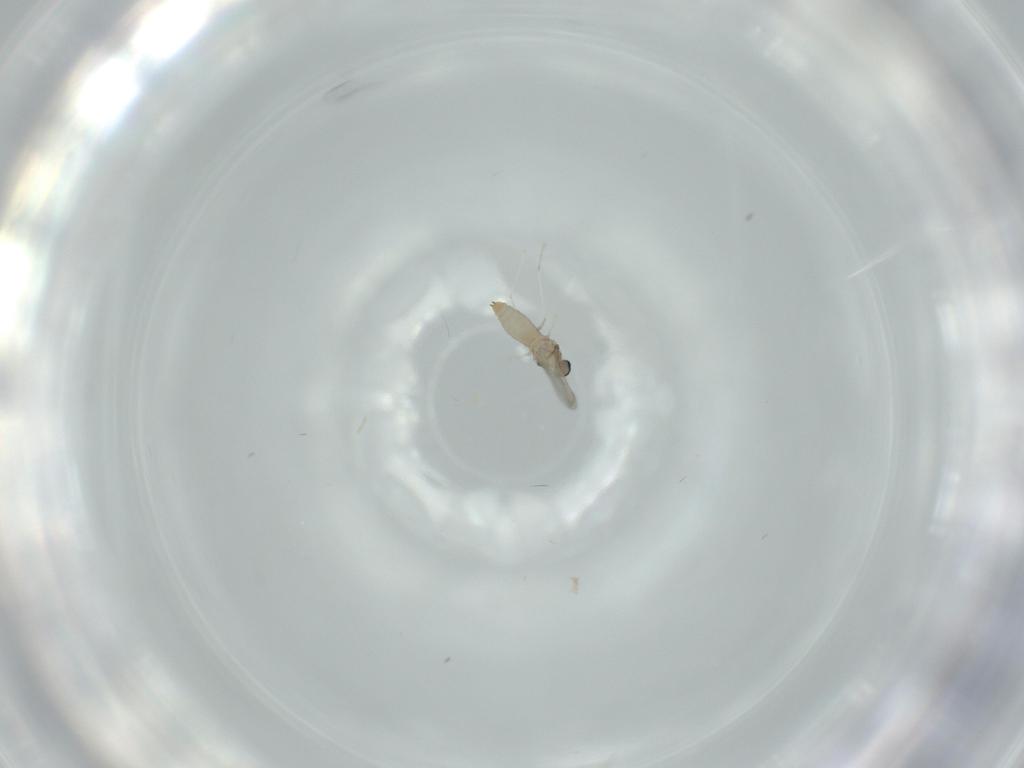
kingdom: Animalia
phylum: Arthropoda
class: Insecta
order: Diptera
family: Cecidomyiidae
